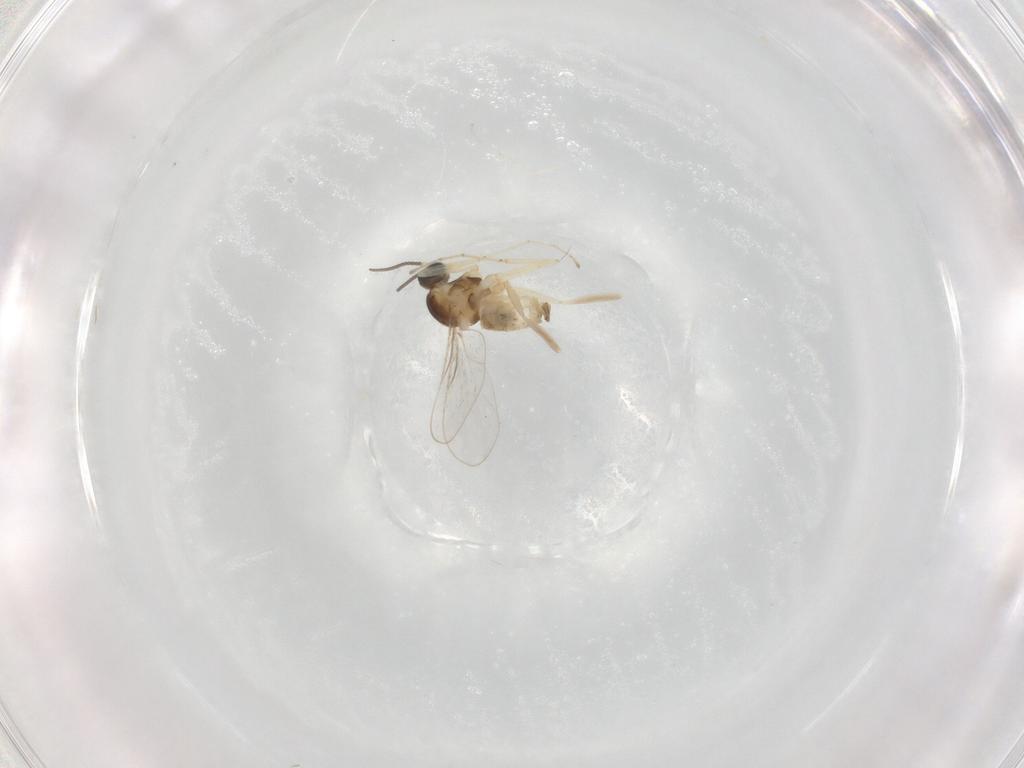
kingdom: Animalia
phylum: Arthropoda
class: Insecta
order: Diptera
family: Cecidomyiidae
